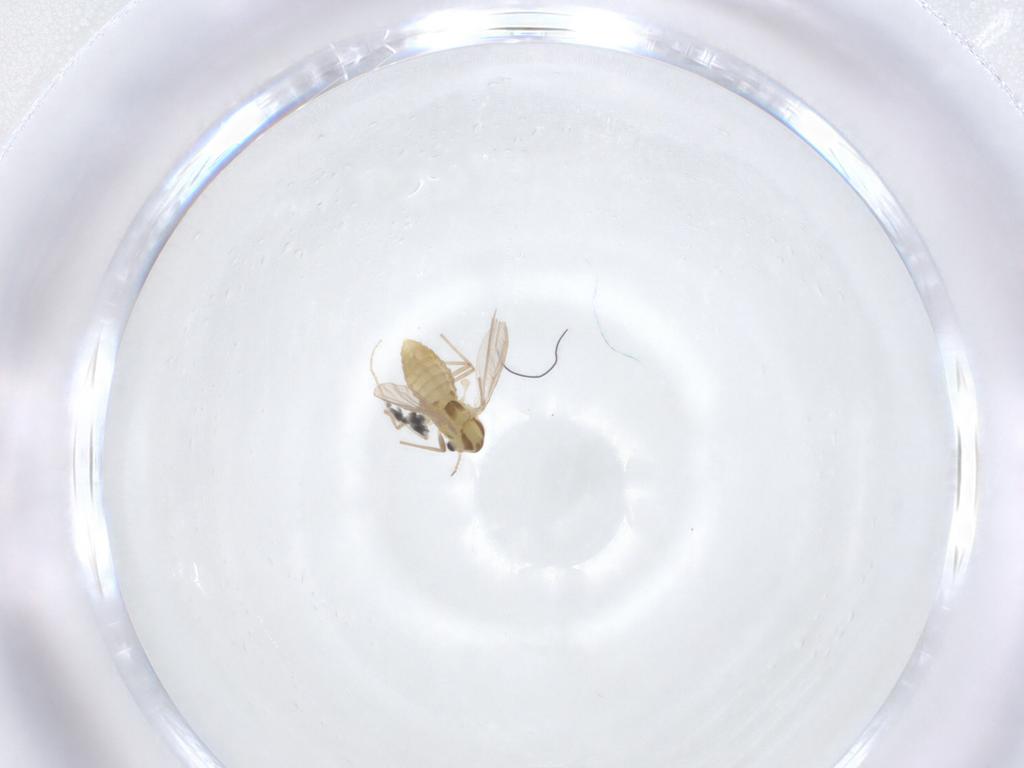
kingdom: Animalia
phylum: Arthropoda
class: Insecta
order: Diptera
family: Chironomidae
